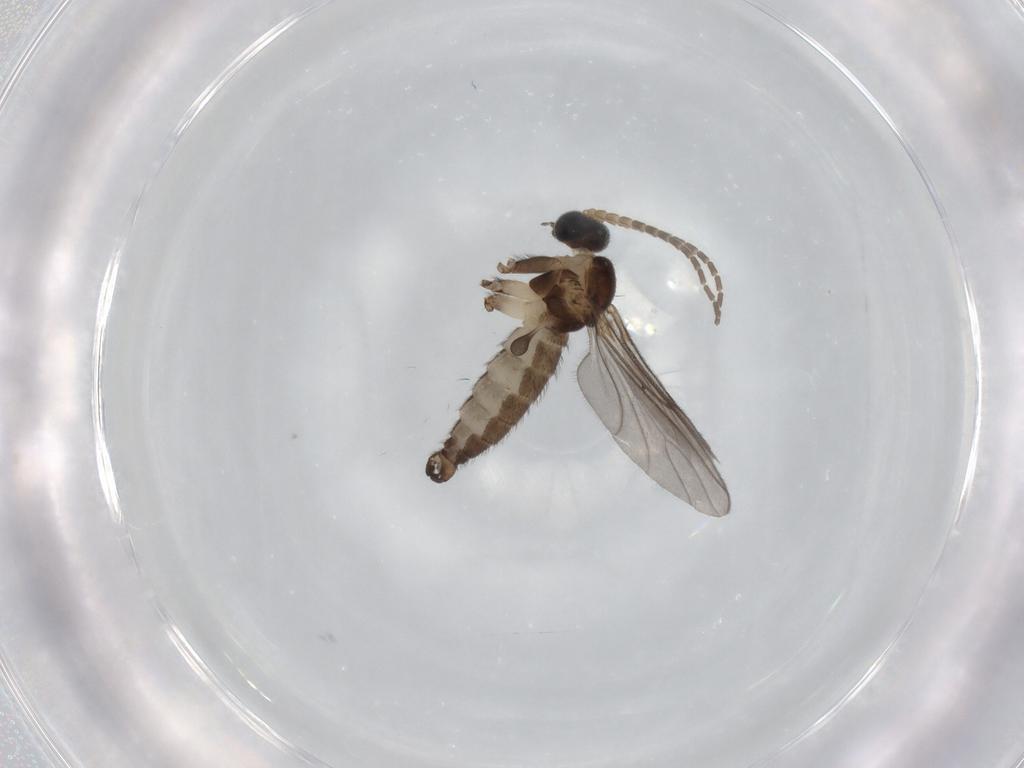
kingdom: Animalia
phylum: Arthropoda
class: Insecta
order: Diptera
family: Sciaridae
